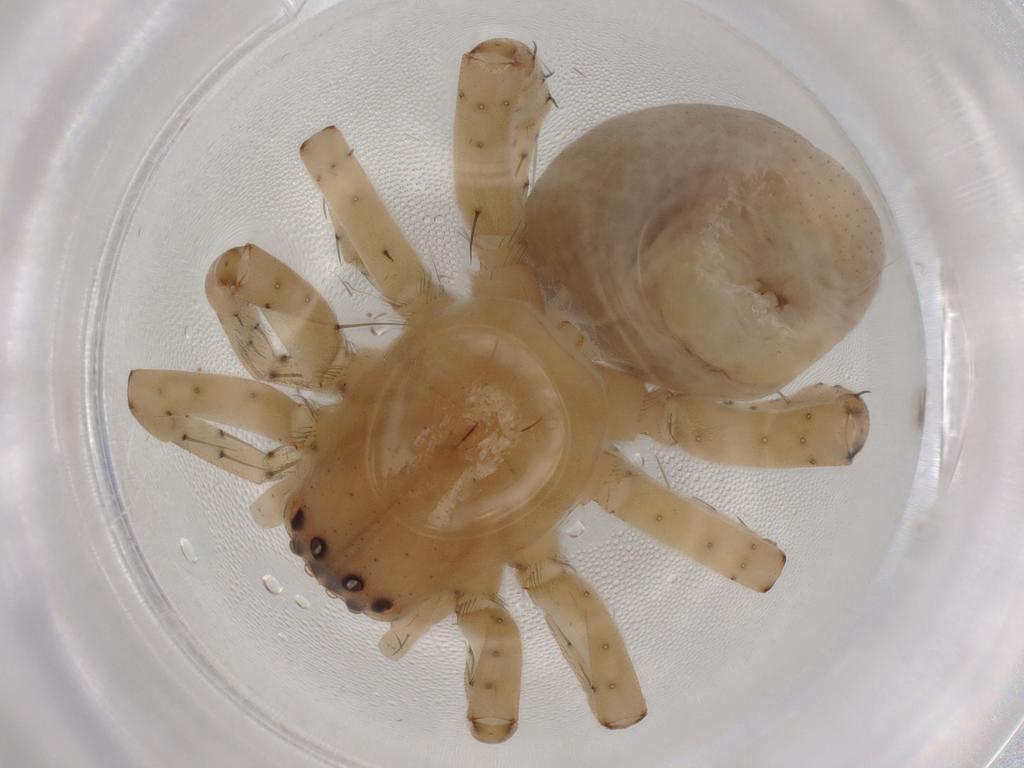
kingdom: Animalia
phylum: Arthropoda
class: Arachnida
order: Araneae
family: Clubionidae
